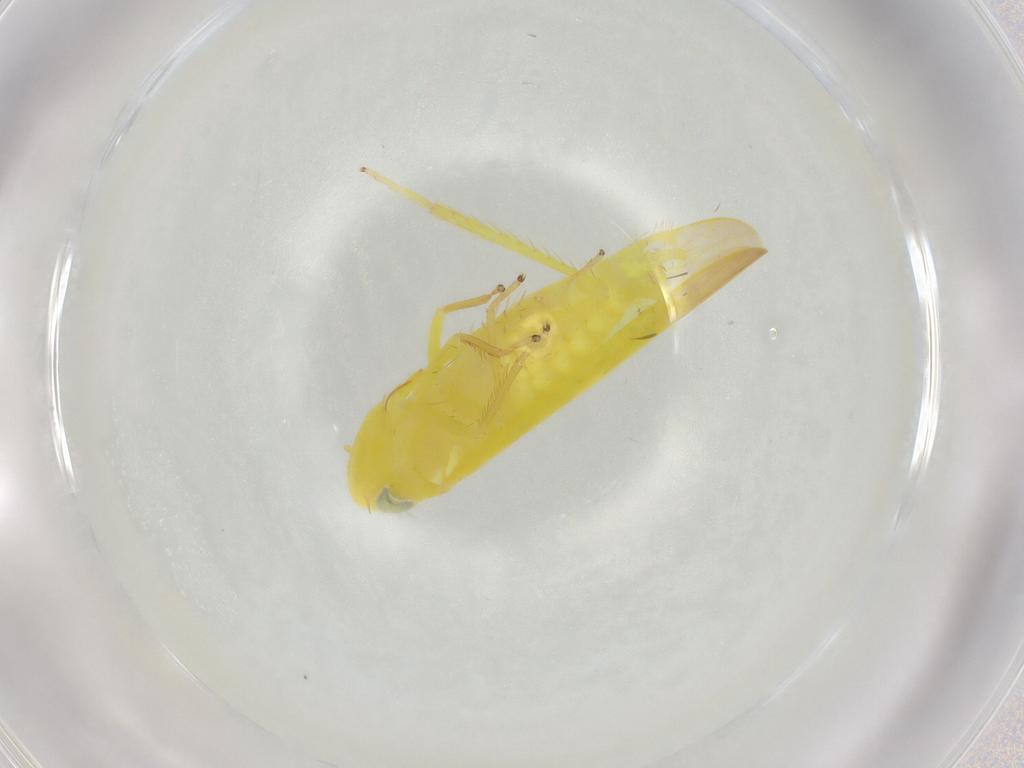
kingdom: Animalia
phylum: Arthropoda
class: Insecta
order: Hemiptera
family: Cicadellidae
